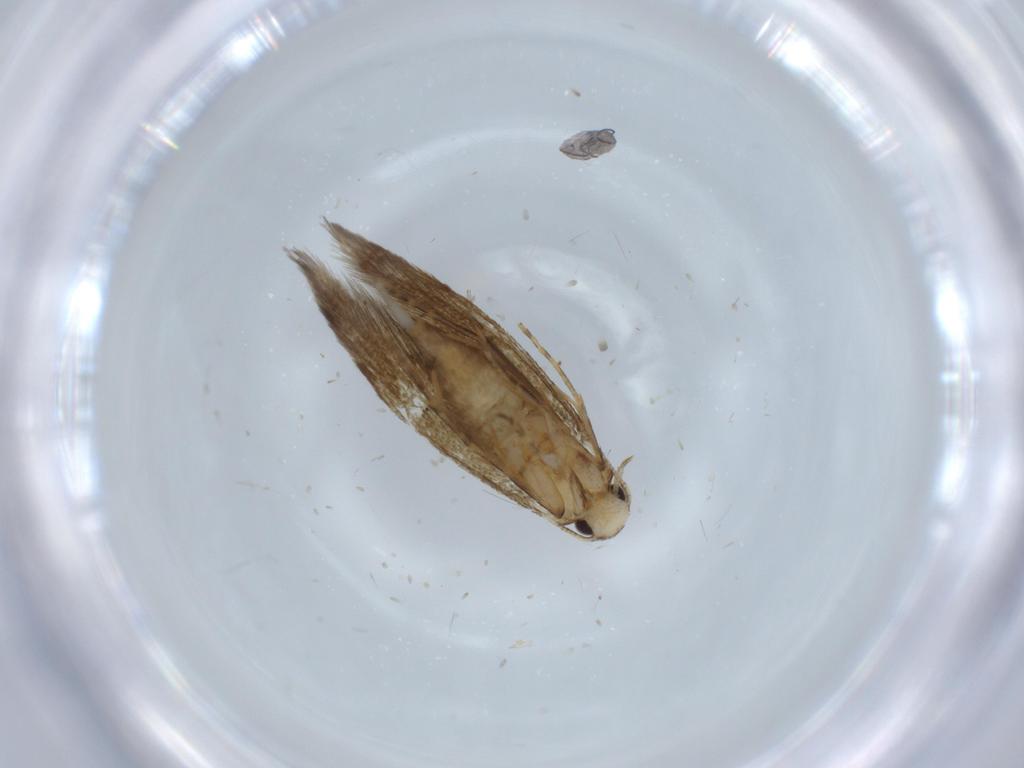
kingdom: Animalia
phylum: Arthropoda
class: Insecta
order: Lepidoptera
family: Tineidae
